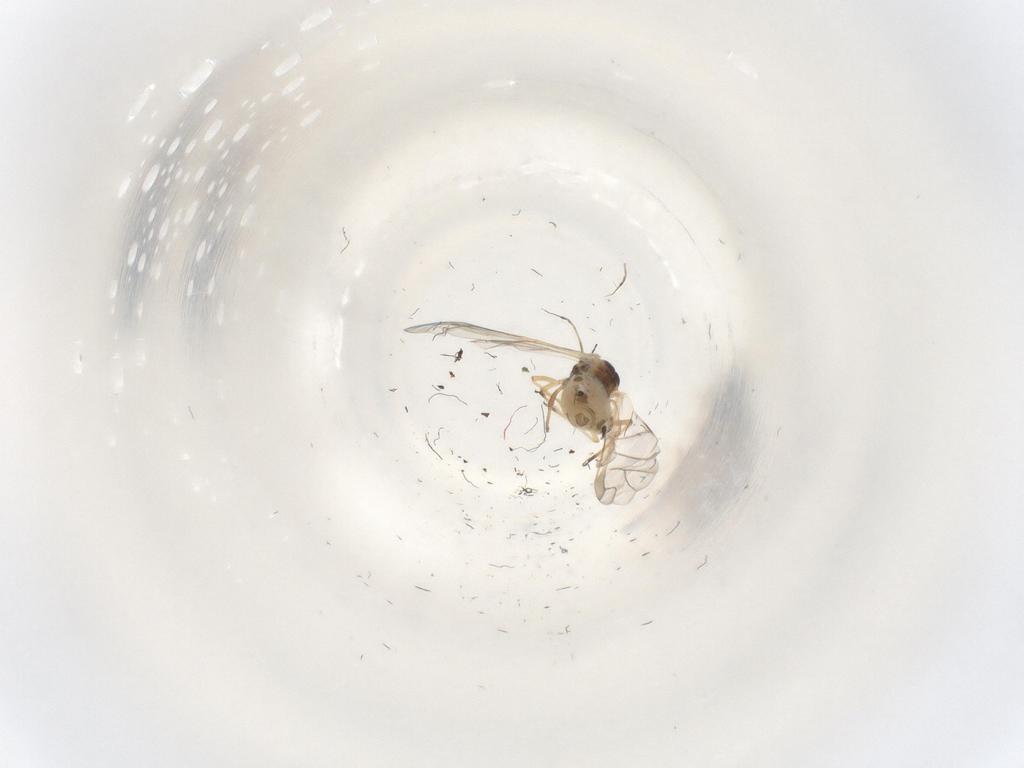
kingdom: Animalia
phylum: Arthropoda
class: Insecta
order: Hemiptera
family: Aphididae
